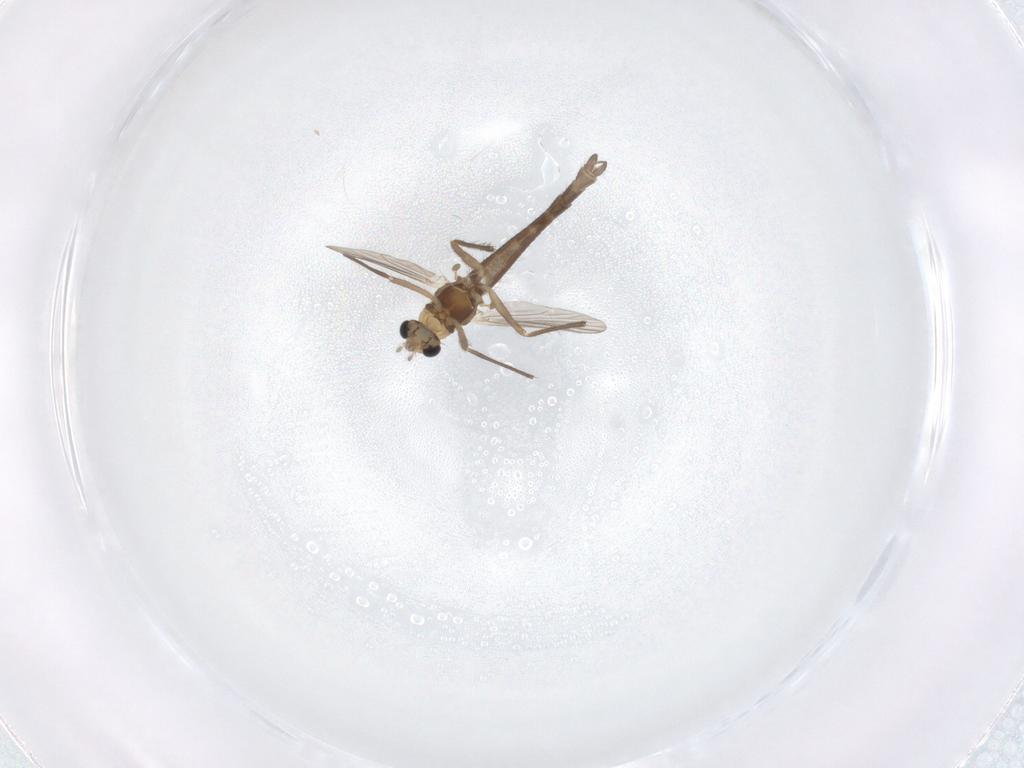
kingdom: Animalia
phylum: Arthropoda
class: Insecta
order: Diptera
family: Chironomidae
